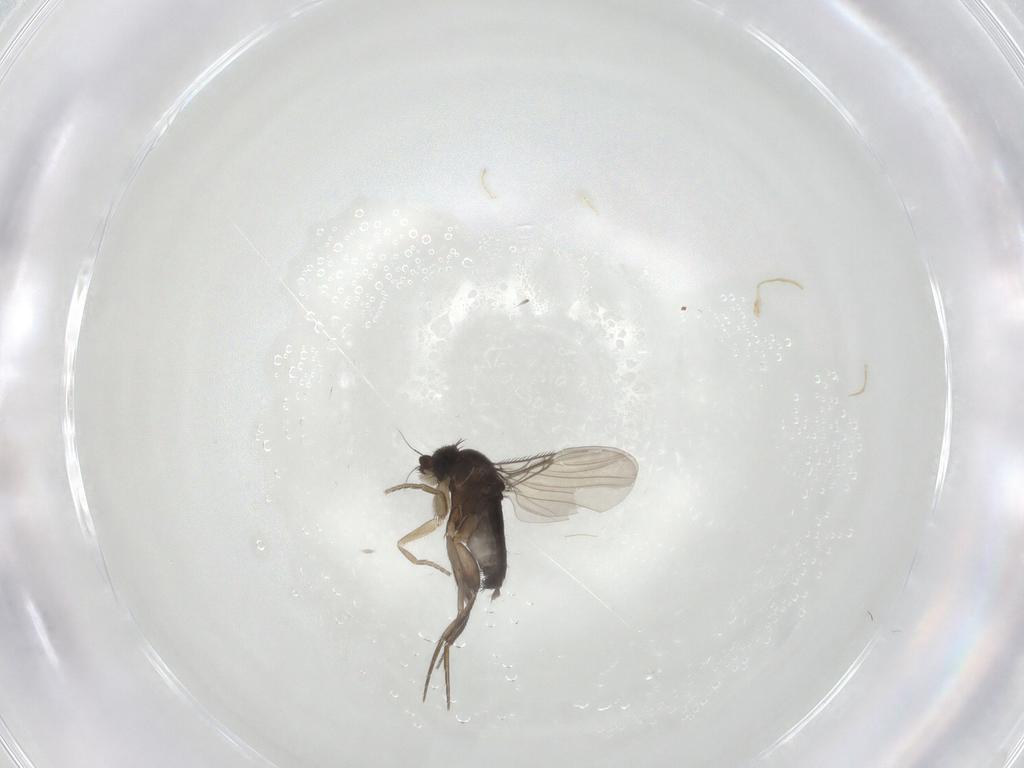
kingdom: Animalia
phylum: Arthropoda
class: Insecta
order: Diptera
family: Phoridae
